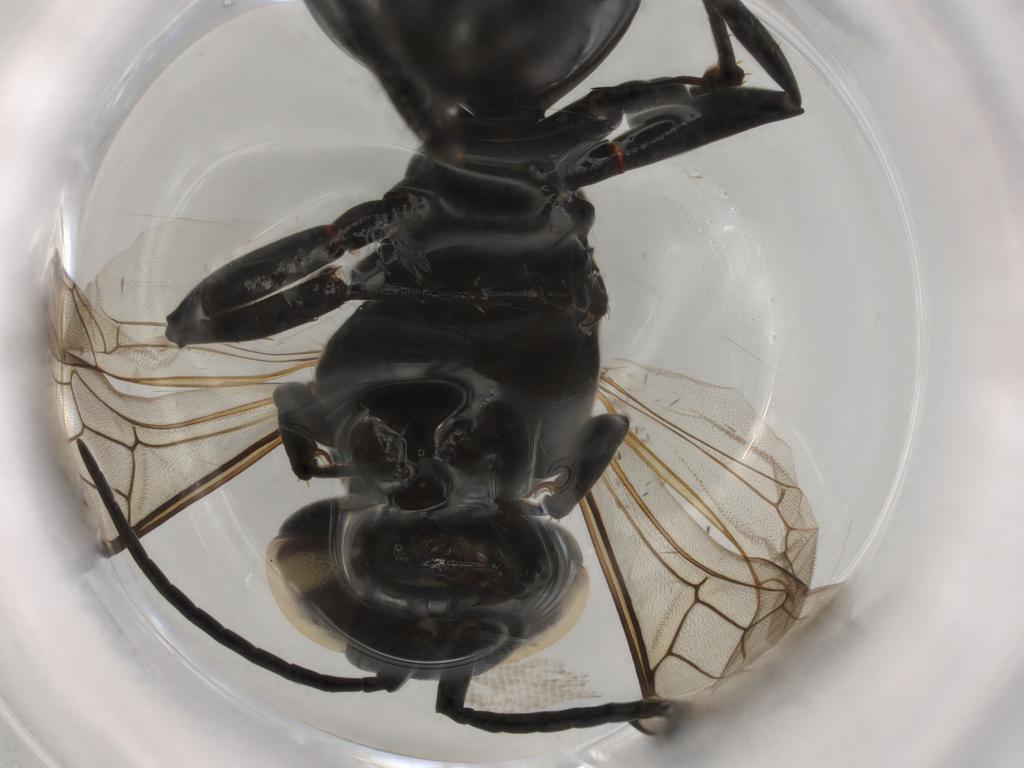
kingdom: Animalia
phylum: Arthropoda
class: Insecta
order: Hymenoptera
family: Crabronidae
